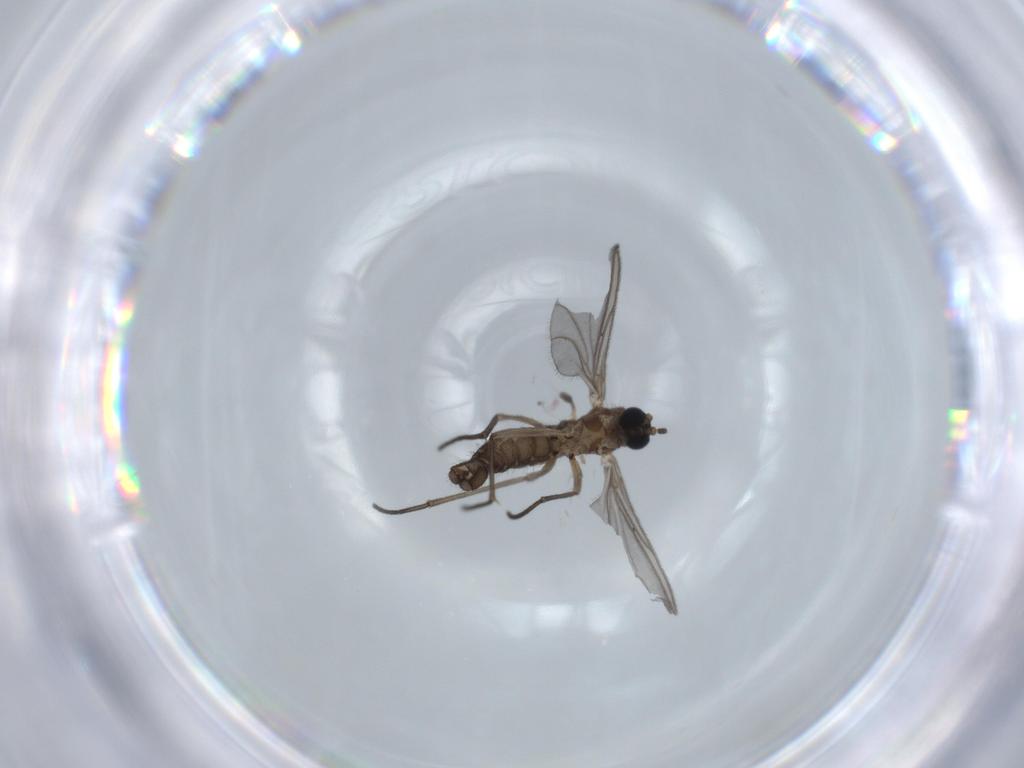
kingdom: Animalia
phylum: Arthropoda
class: Insecta
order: Diptera
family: Sciaridae
